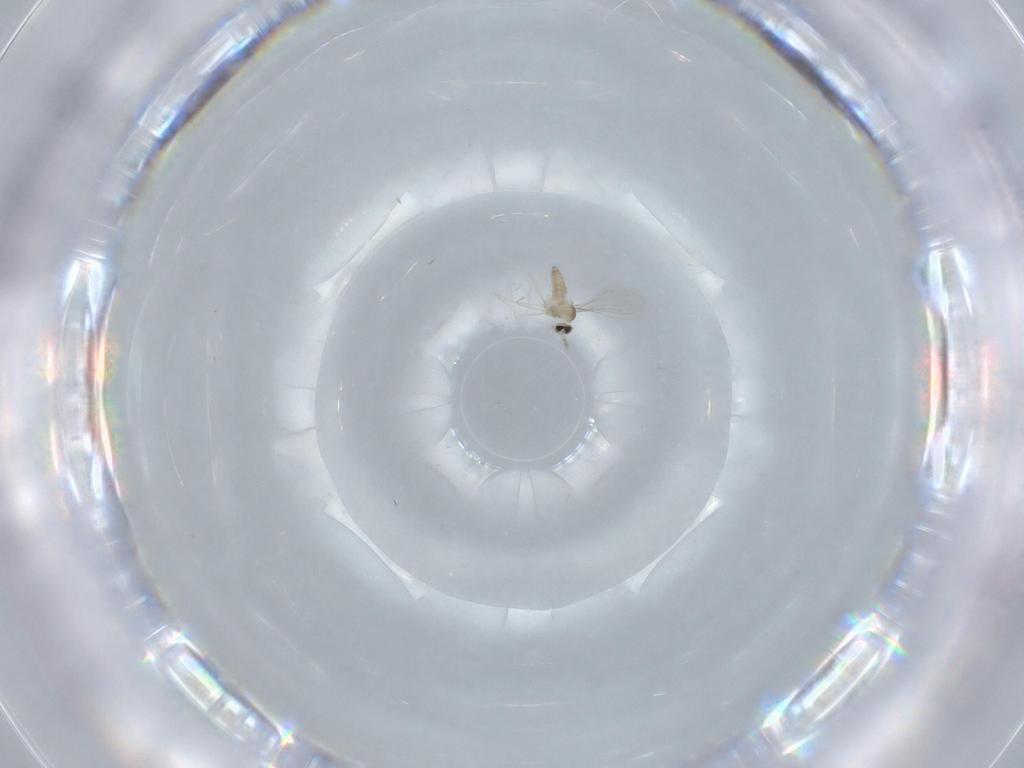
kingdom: Animalia
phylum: Arthropoda
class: Insecta
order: Diptera
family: Cecidomyiidae
